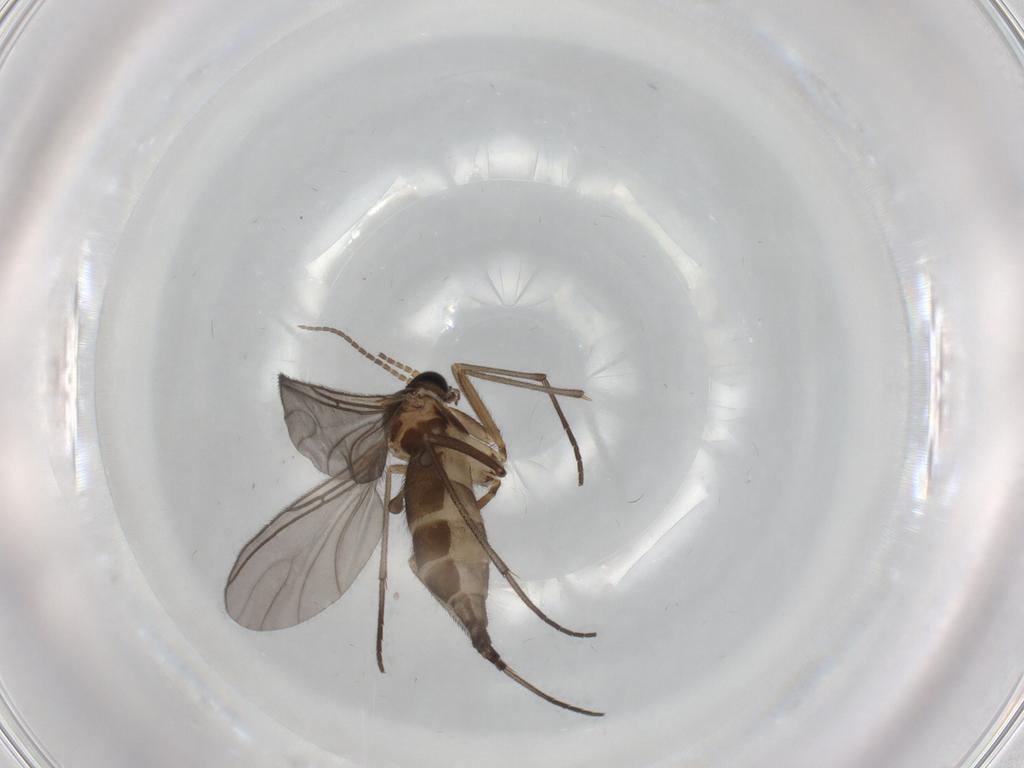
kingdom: Animalia
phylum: Arthropoda
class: Insecta
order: Diptera
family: Sciaridae
